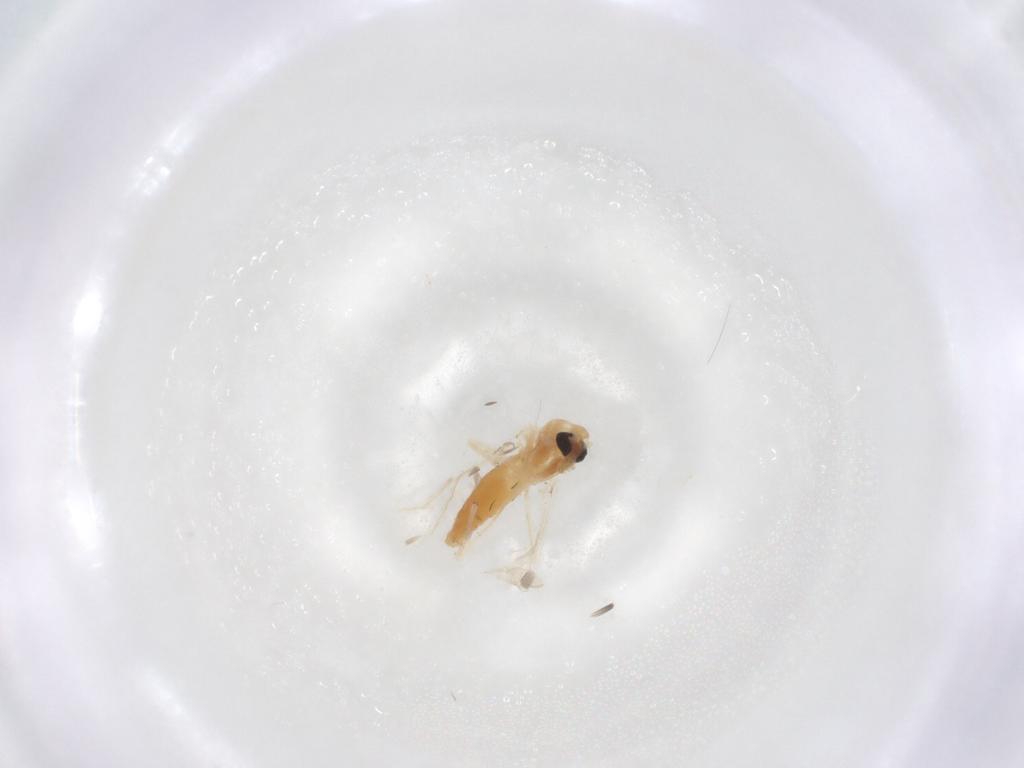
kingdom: Animalia
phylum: Arthropoda
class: Insecta
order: Diptera
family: Chironomidae
